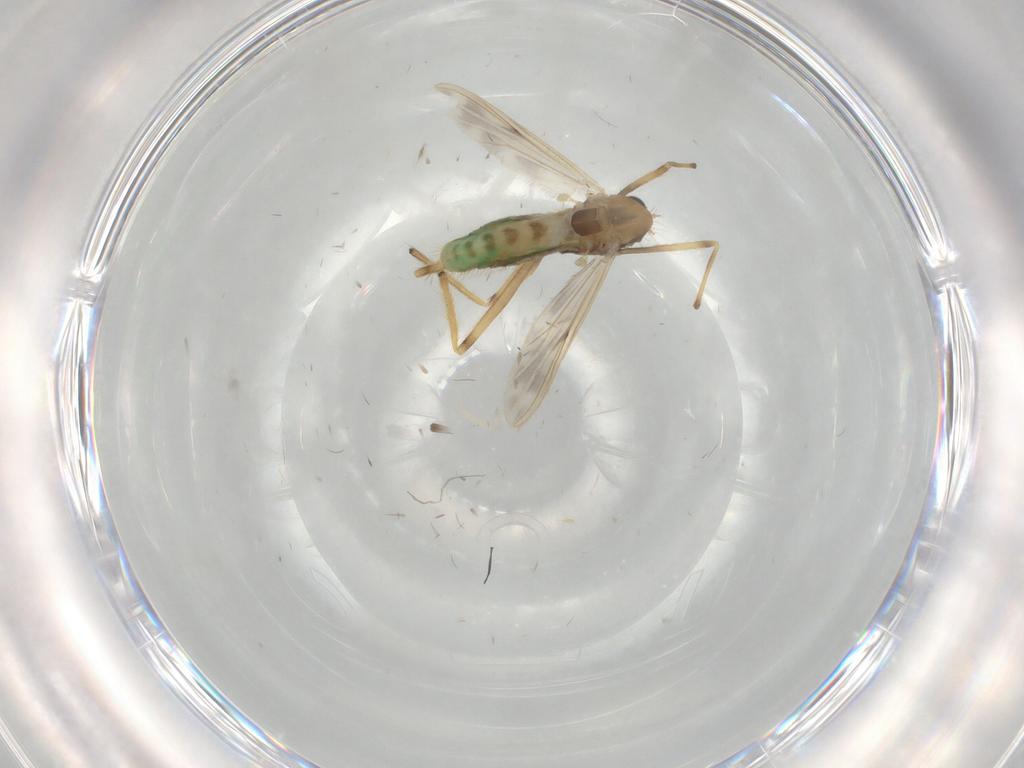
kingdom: Animalia
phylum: Arthropoda
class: Insecta
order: Diptera
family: Chironomidae
